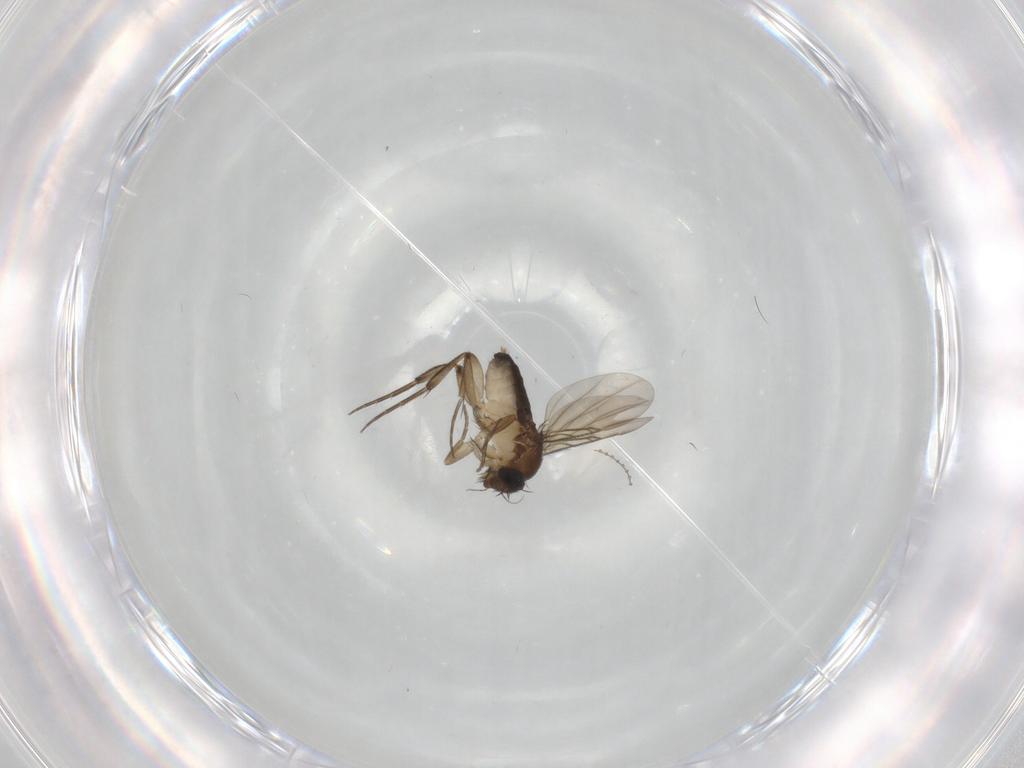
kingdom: Animalia
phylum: Arthropoda
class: Insecta
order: Diptera
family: Phoridae
